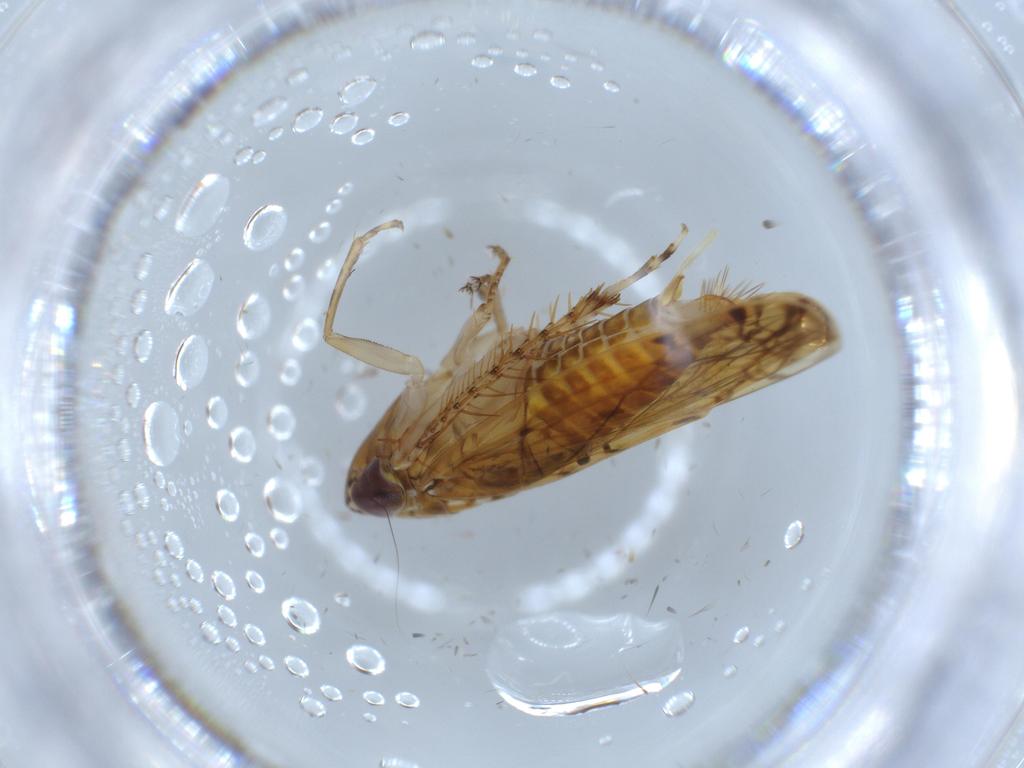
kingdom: Animalia
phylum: Arthropoda
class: Insecta
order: Hemiptera
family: Cicadellidae
